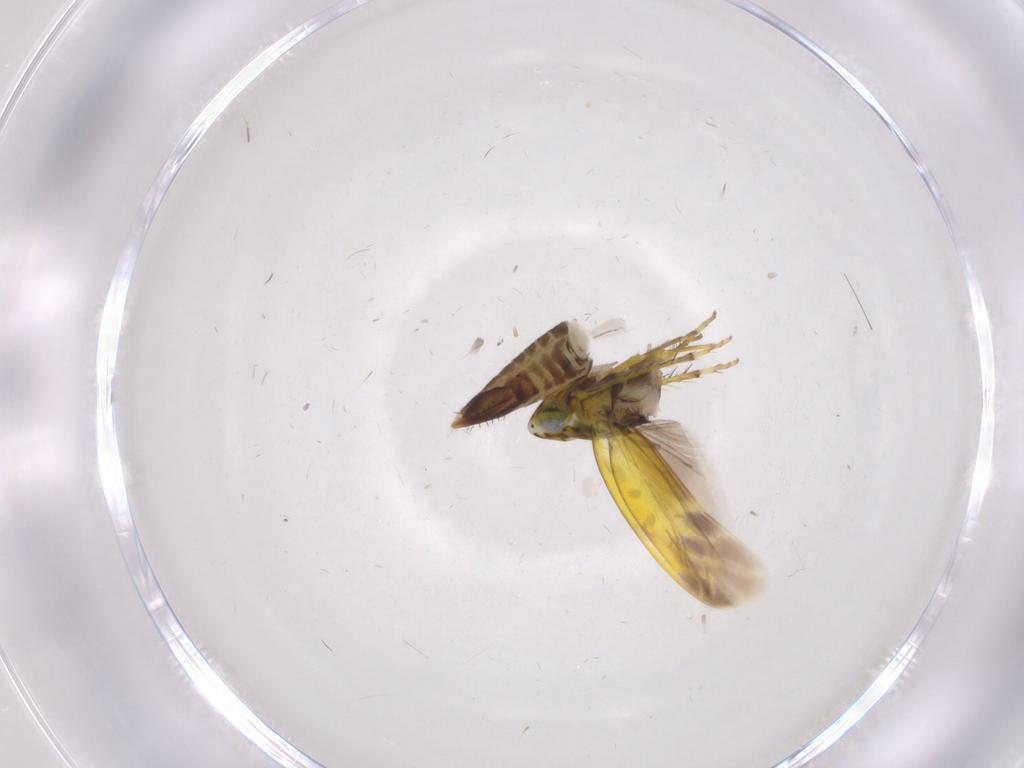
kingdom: Animalia
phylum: Arthropoda
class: Insecta
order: Hemiptera
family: Cicadellidae
